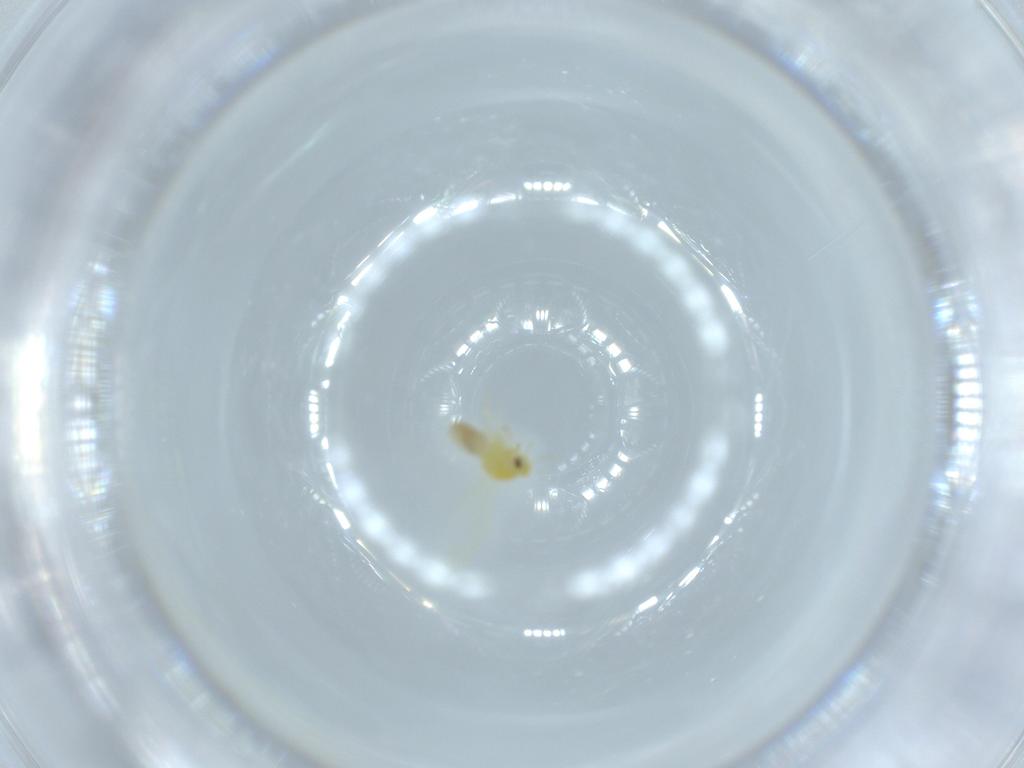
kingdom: Animalia
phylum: Arthropoda
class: Insecta
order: Hemiptera
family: Aleyrodidae
